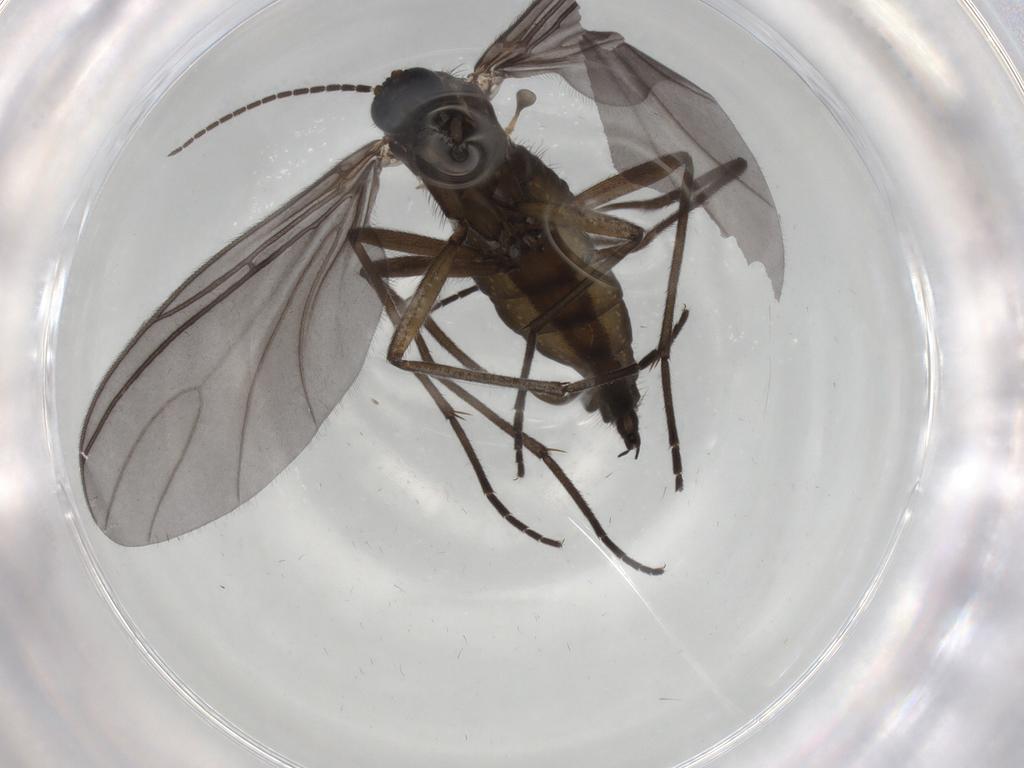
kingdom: Animalia
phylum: Arthropoda
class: Insecta
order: Diptera
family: Sciaridae
